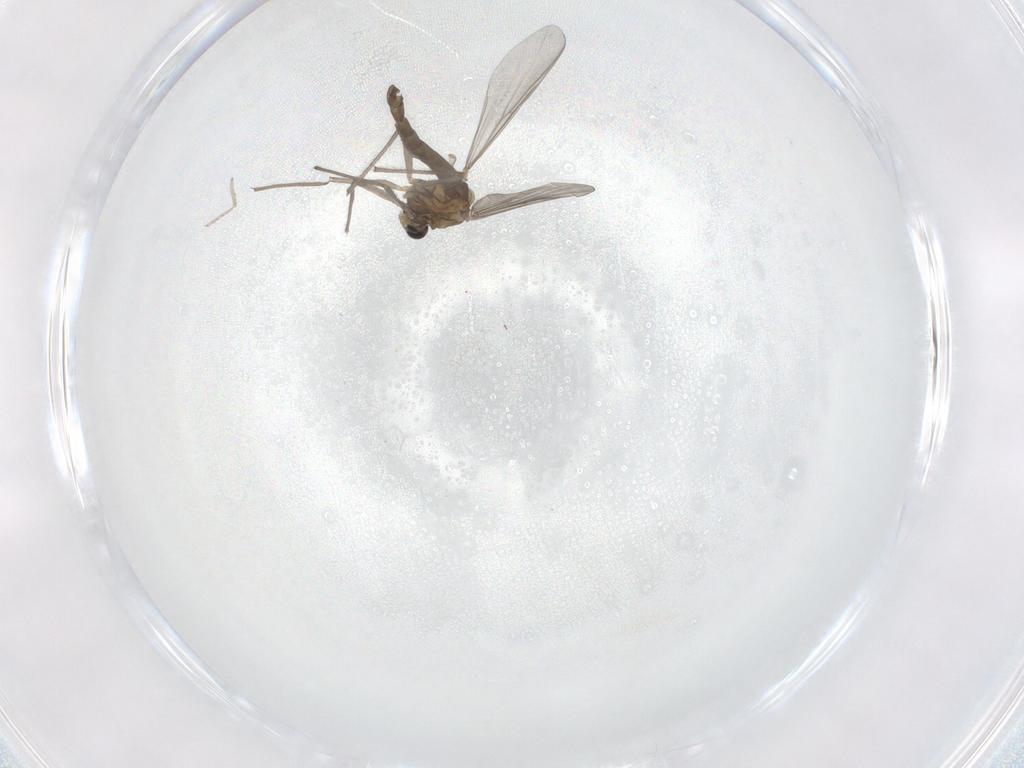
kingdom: Animalia
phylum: Arthropoda
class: Insecta
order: Diptera
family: Chironomidae
